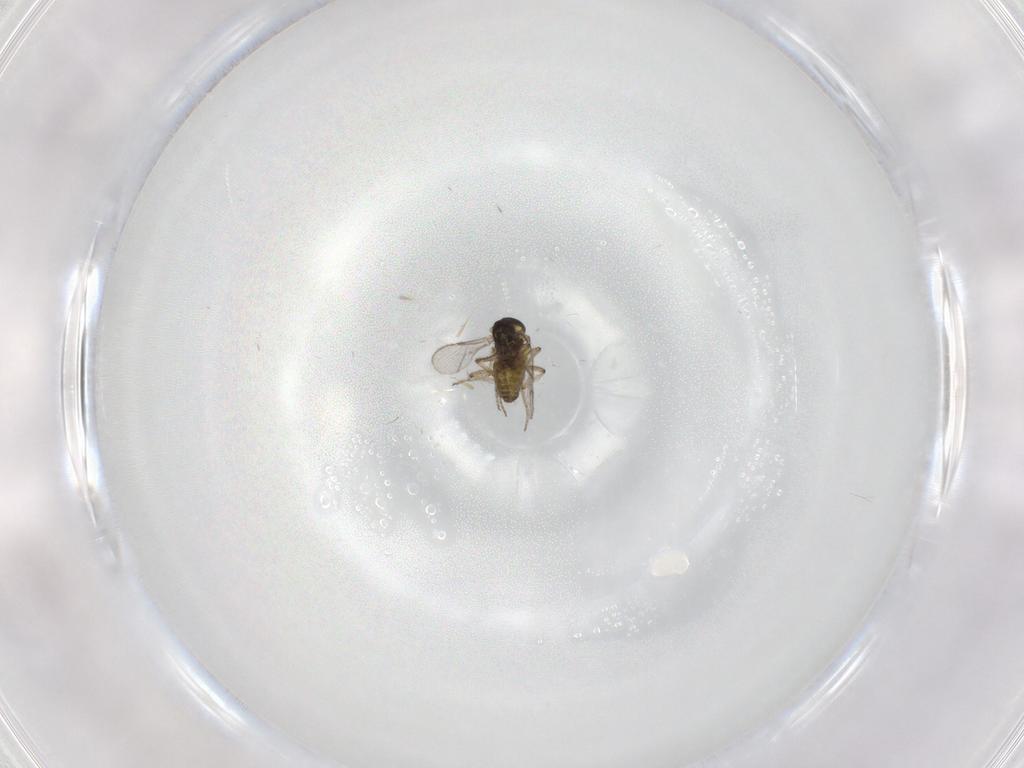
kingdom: Animalia
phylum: Arthropoda
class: Insecta
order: Diptera
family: Ceratopogonidae
